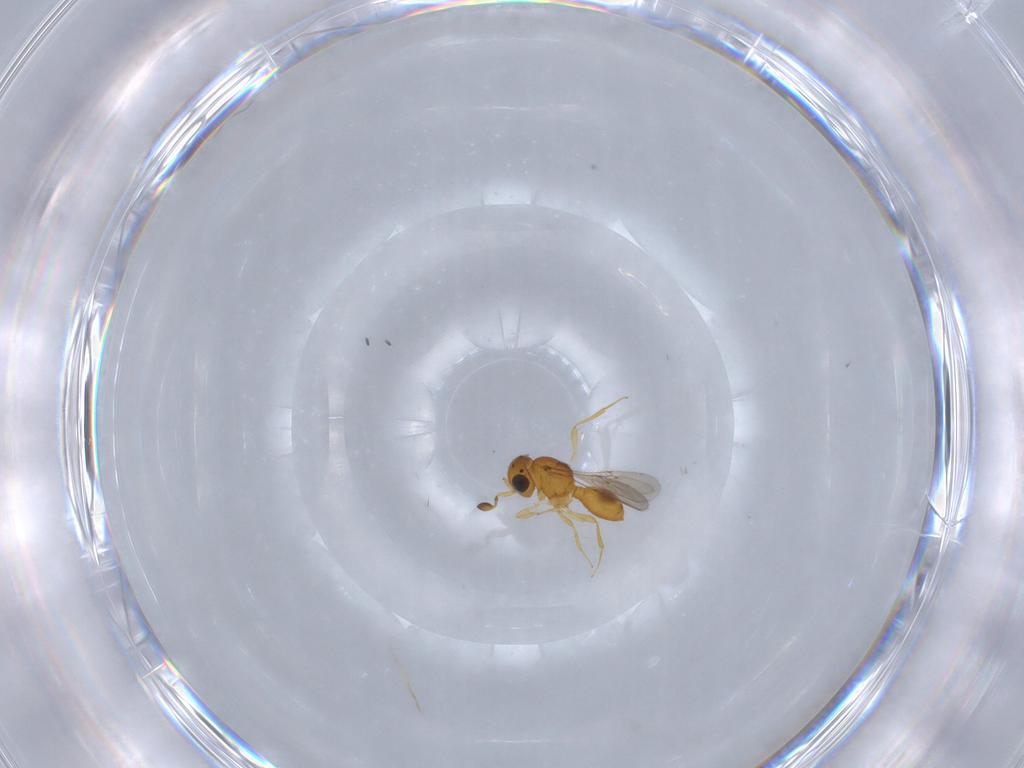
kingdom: Animalia
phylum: Arthropoda
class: Insecta
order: Hymenoptera
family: Scelionidae
